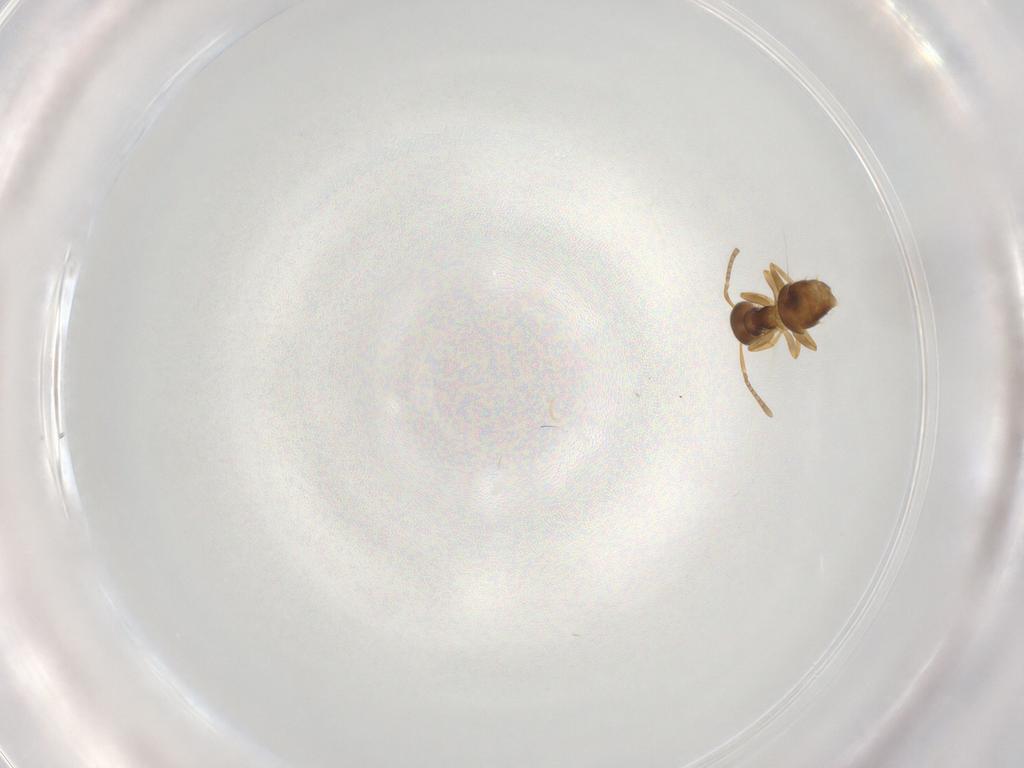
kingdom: Animalia
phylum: Arthropoda
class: Insecta
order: Hymenoptera
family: Formicidae
